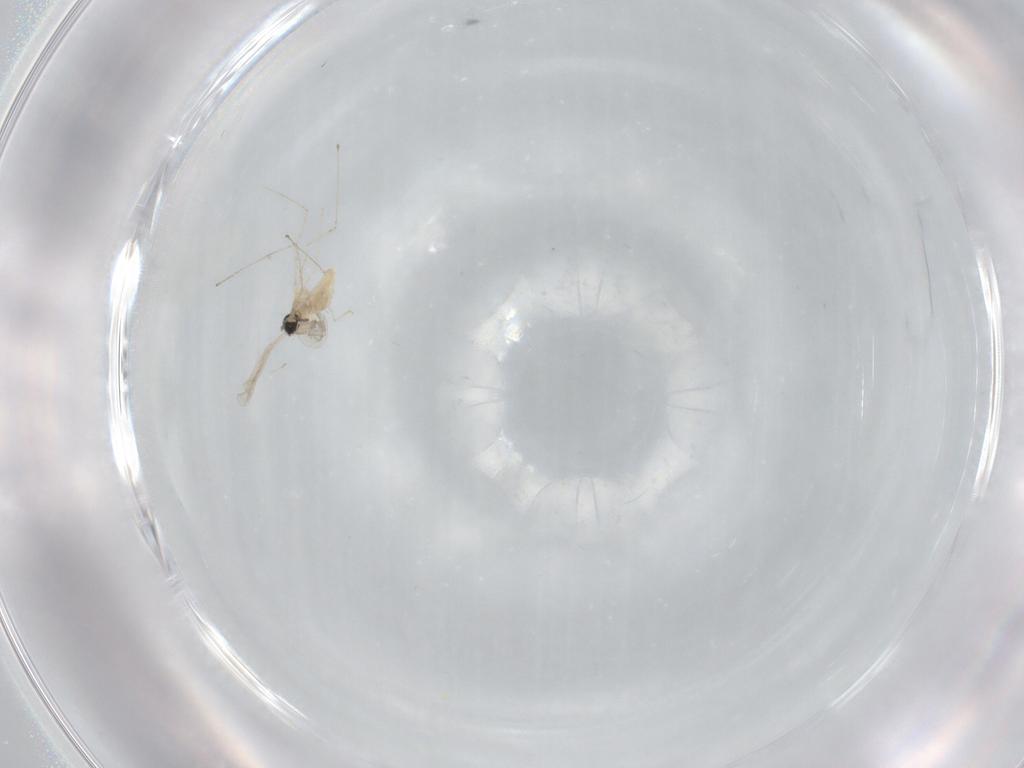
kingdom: Animalia
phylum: Arthropoda
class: Insecta
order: Diptera
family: Cecidomyiidae
